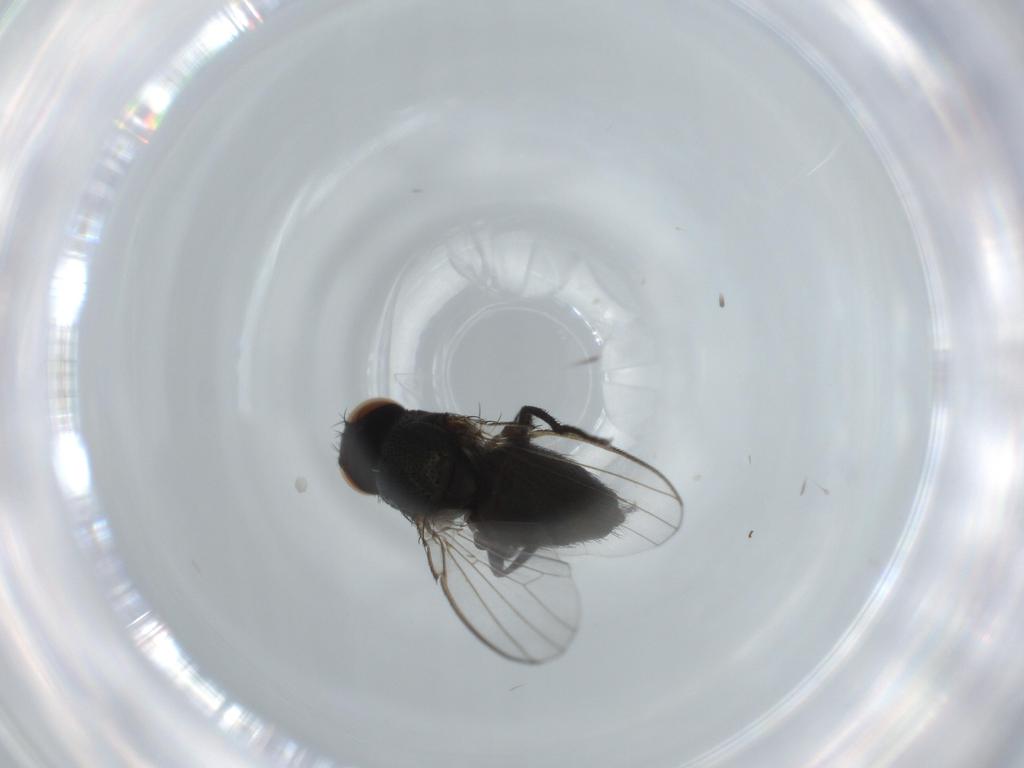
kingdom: Animalia
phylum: Arthropoda
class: Insecta
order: Diptera
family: Milichiidae
